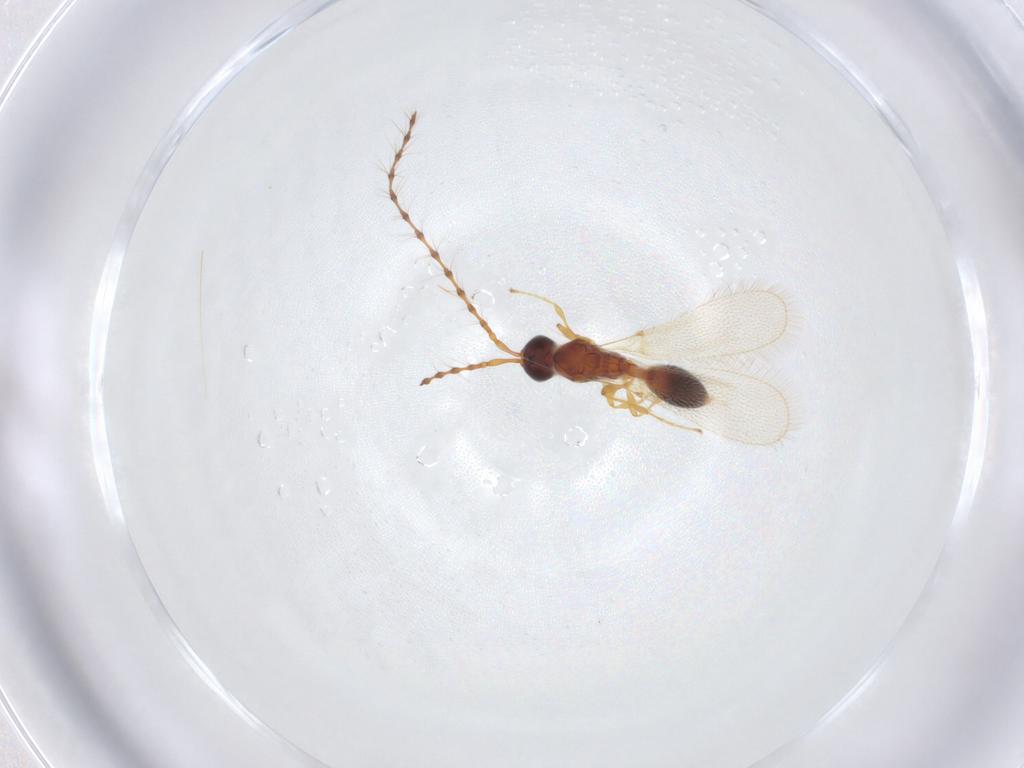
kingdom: Animalia
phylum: Arthropoda
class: Insecta
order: Hymenoptera
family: Diapriidae
